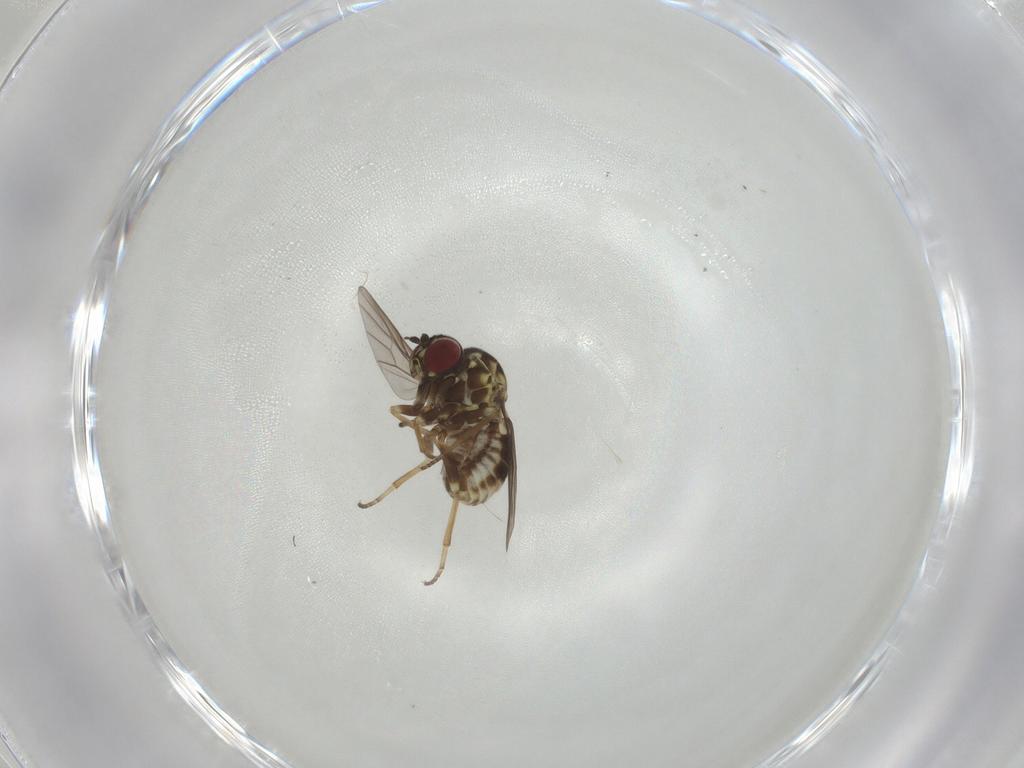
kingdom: Animalia
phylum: Arthropoda
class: Insecta
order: Diptera
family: Bombyliidae
